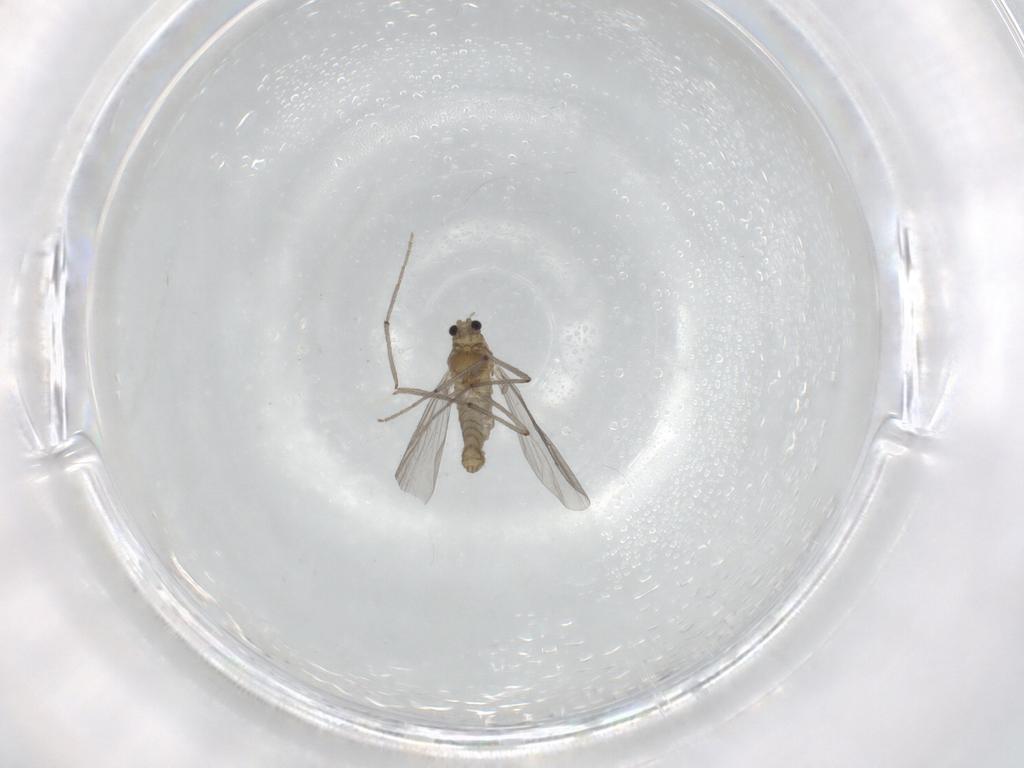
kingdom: Animalia
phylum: Arthropoda
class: Insecta
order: Diptera
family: Chironomidae
